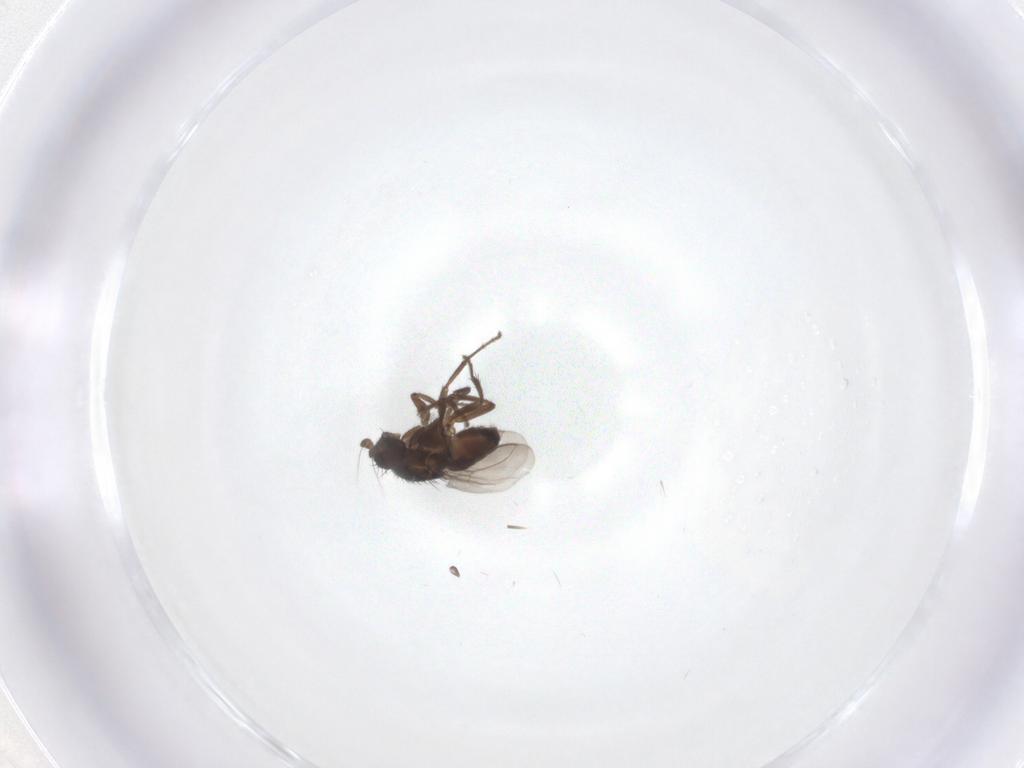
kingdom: Animalia
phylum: Arthropoda
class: Insecta
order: Diptera
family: Sphaeroceridae
